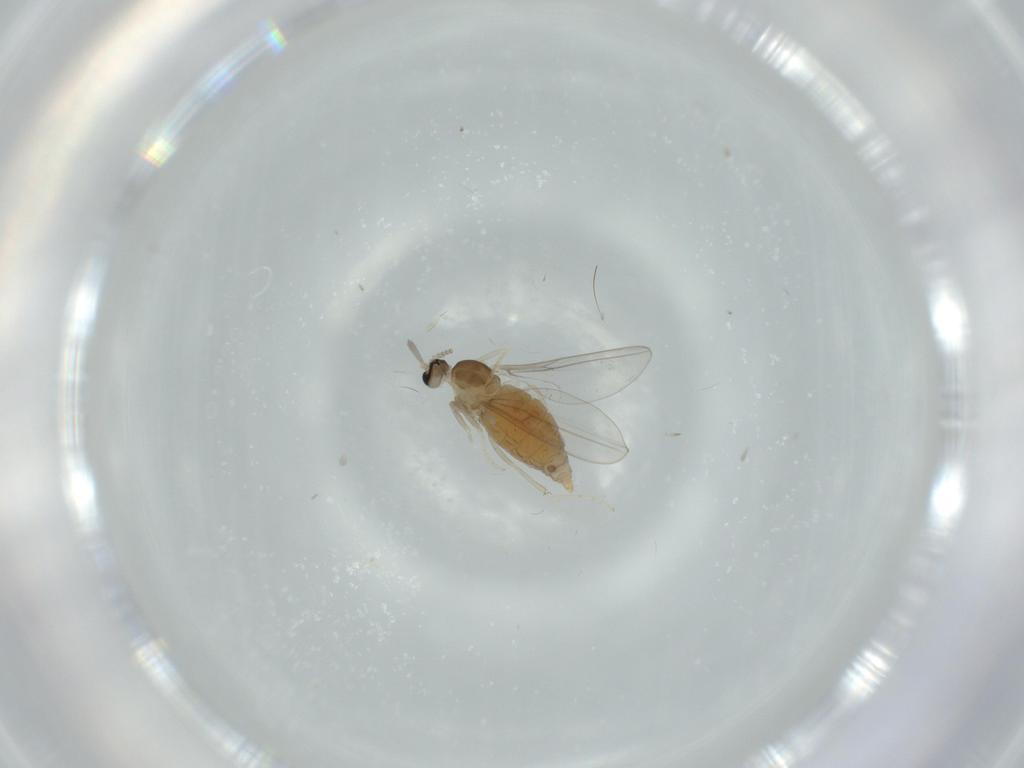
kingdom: Animalia
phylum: Arthropoda
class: Insecta
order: Diptera
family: Cecidomyiidae
